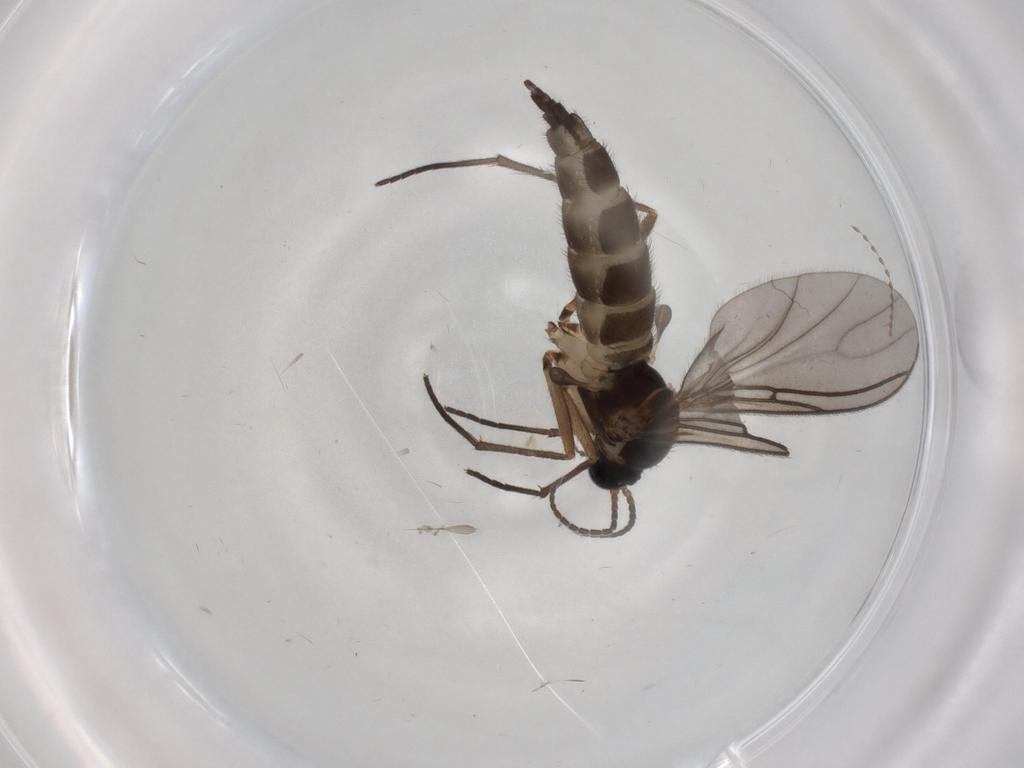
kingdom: Animalia
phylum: Arthropoda
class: Insecta
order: Diptera
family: Sciaridae
